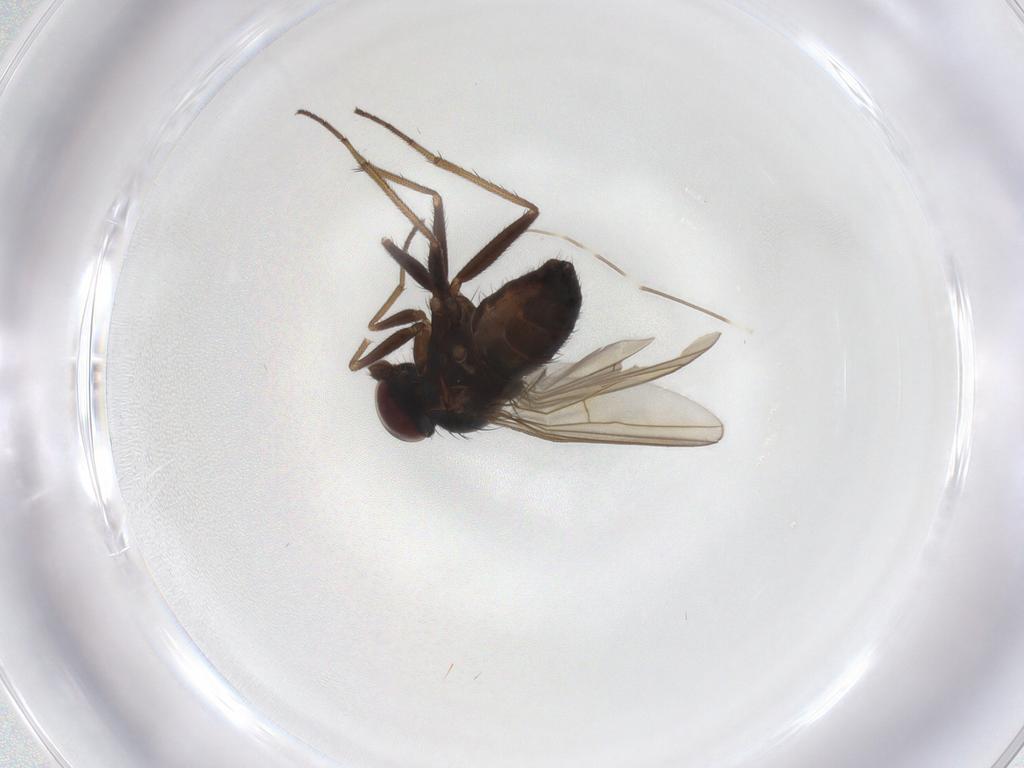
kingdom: Animalia
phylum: Arthropoda
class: Insecta
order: Diptera
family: Dolichopodidae
